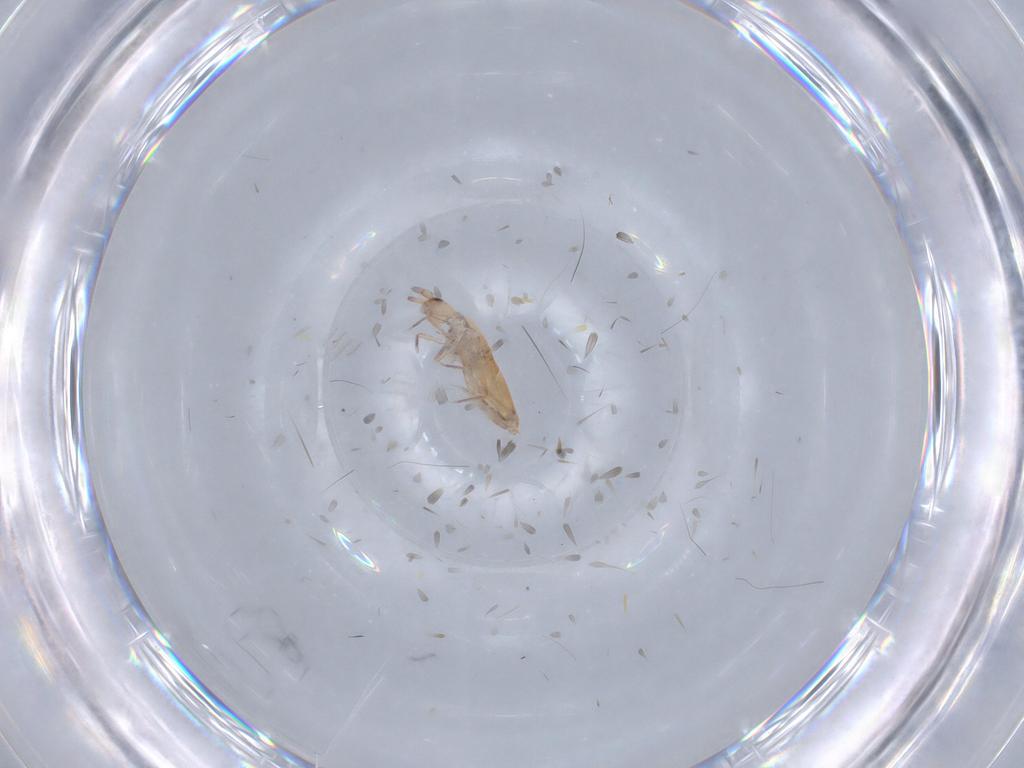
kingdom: Animalia
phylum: Arthropoda
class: Collembola
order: Entomobryomorpha
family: Entomobryidae
